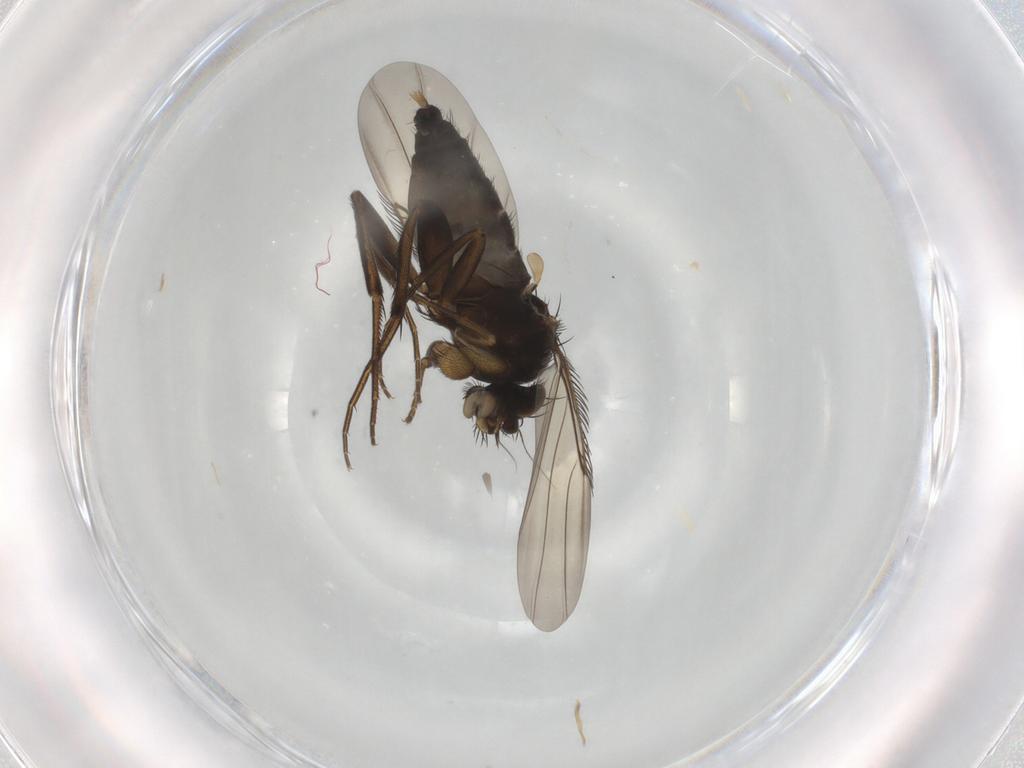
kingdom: Animalia
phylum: Arthropoda
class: Insecta
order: Diptera
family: Phoridae
